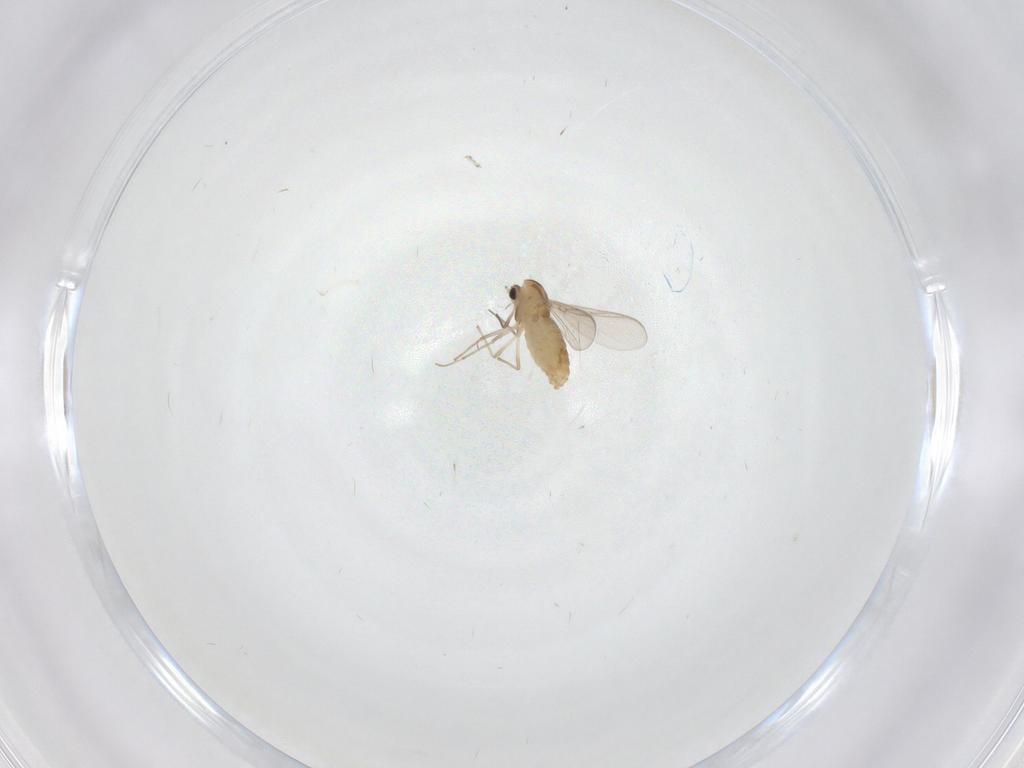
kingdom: Animalia
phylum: Arthropoda
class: Insecta
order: Diptera
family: Chironomidae
